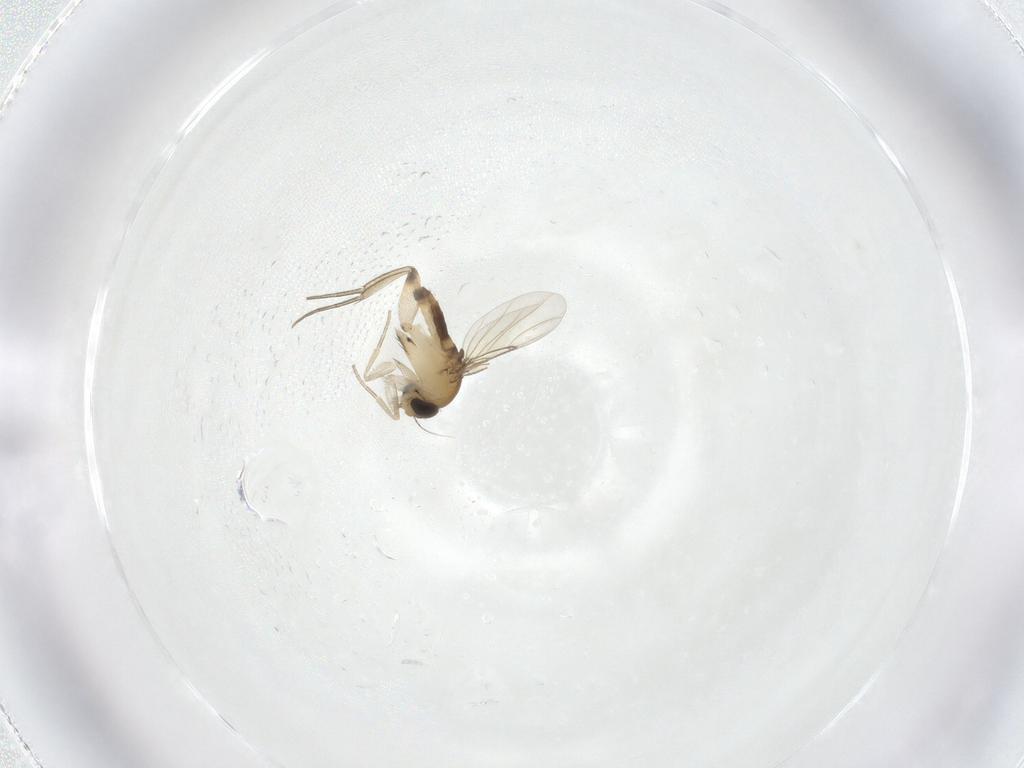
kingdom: Animalia
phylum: Arthropoda
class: Insecta
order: Diptera
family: Phoridae
